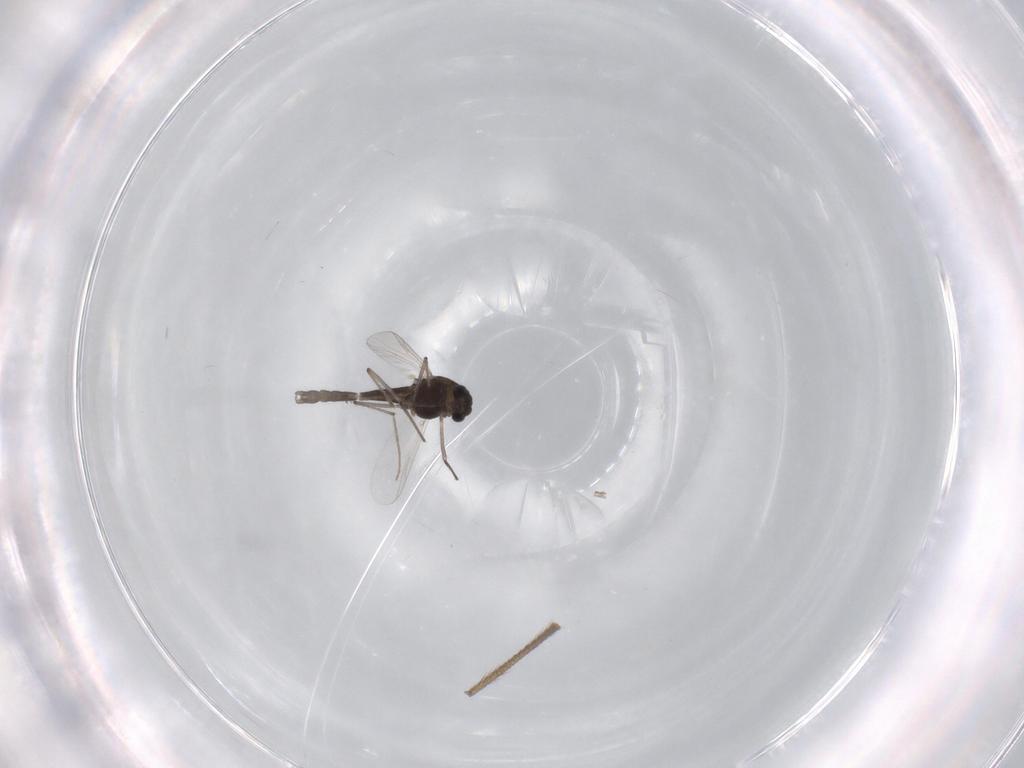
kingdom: Animalia
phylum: Arthropoda
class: Insecta
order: Diptera
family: Chironomidae
